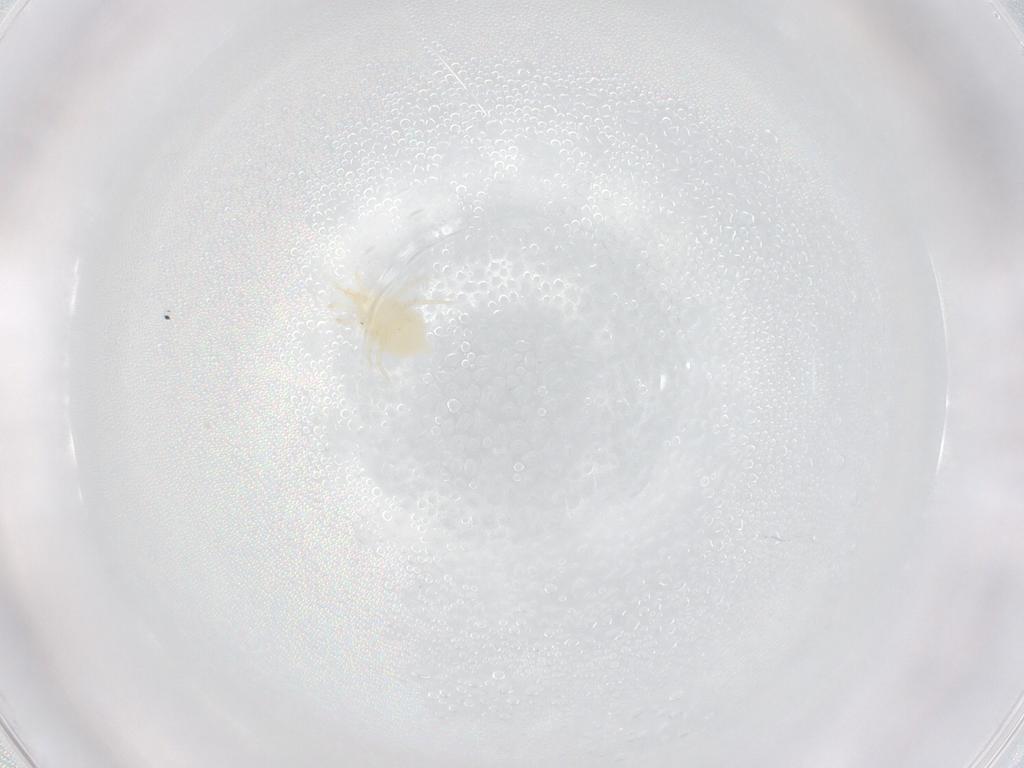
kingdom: Animalia
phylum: Arthropoda
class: Arachnida
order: Mesostigmata
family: Melicharidae
